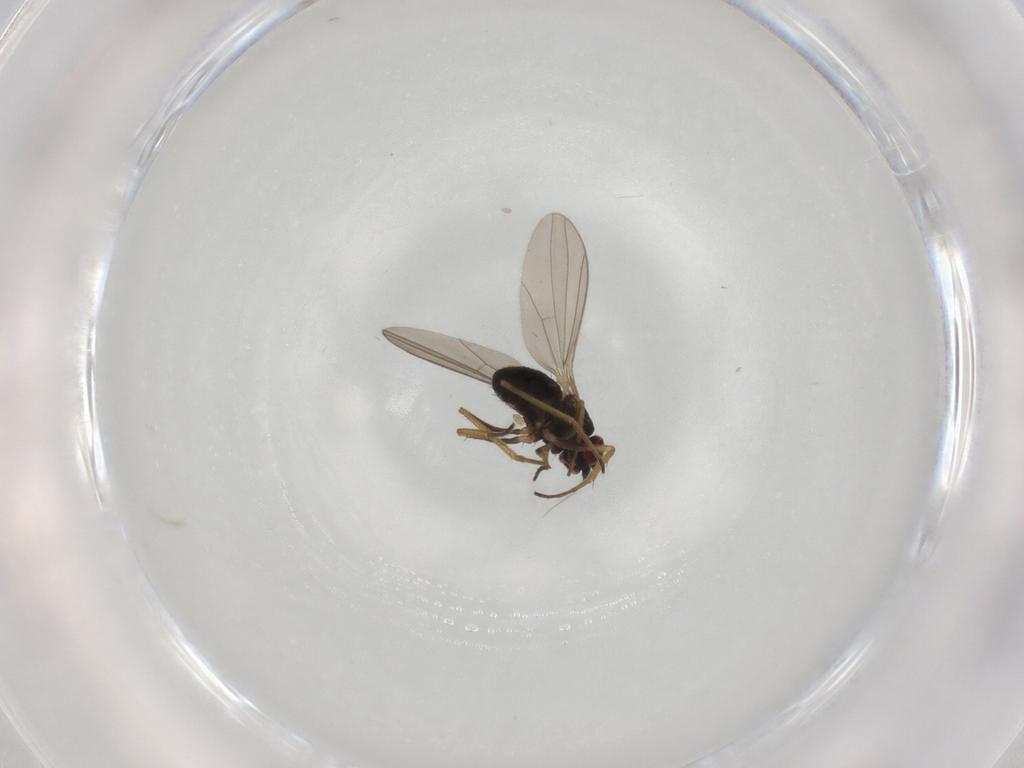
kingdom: Animalia
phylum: Arthropoda
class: Insecta
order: Diptera
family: Dolichopodidae
